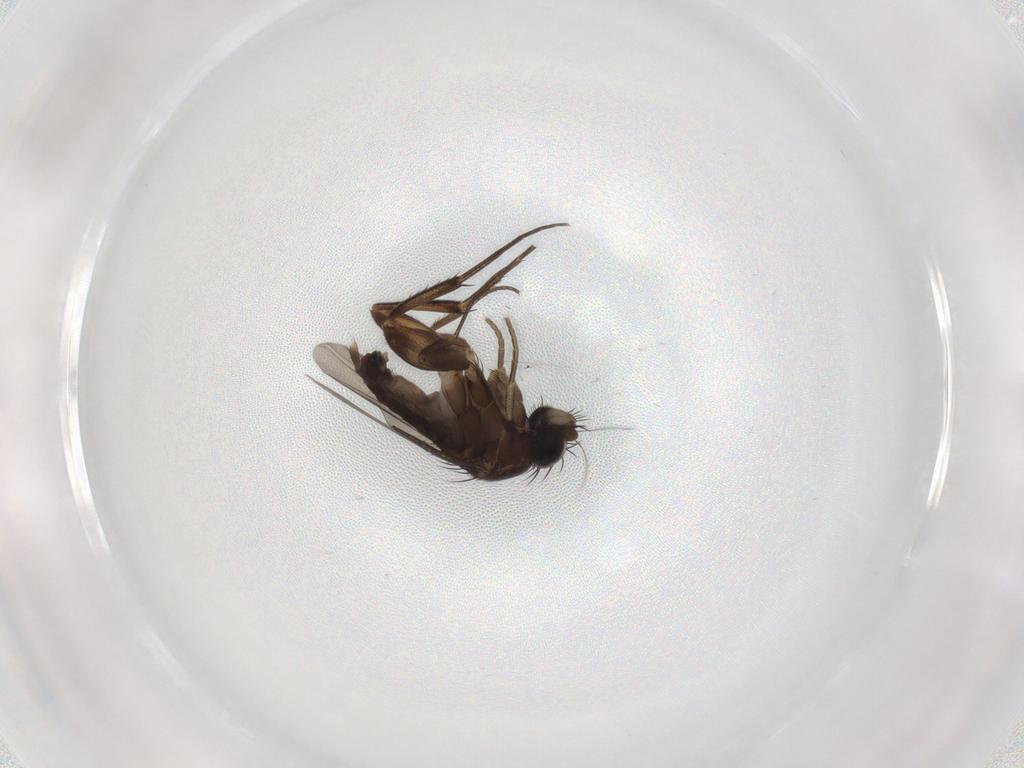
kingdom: Animalia
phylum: Arthropoda
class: Insecta
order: Diptera
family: Phoridae
